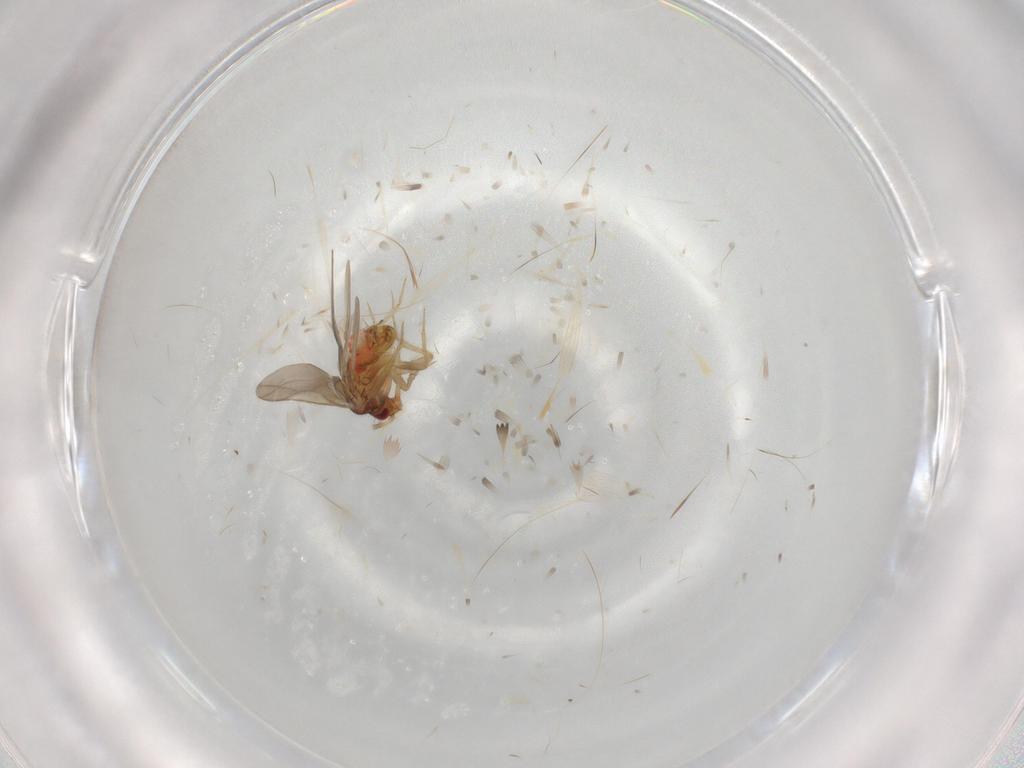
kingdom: Animalia
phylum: Arthropoda
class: Insecta
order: Hemiptera
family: Ceratocombidae
